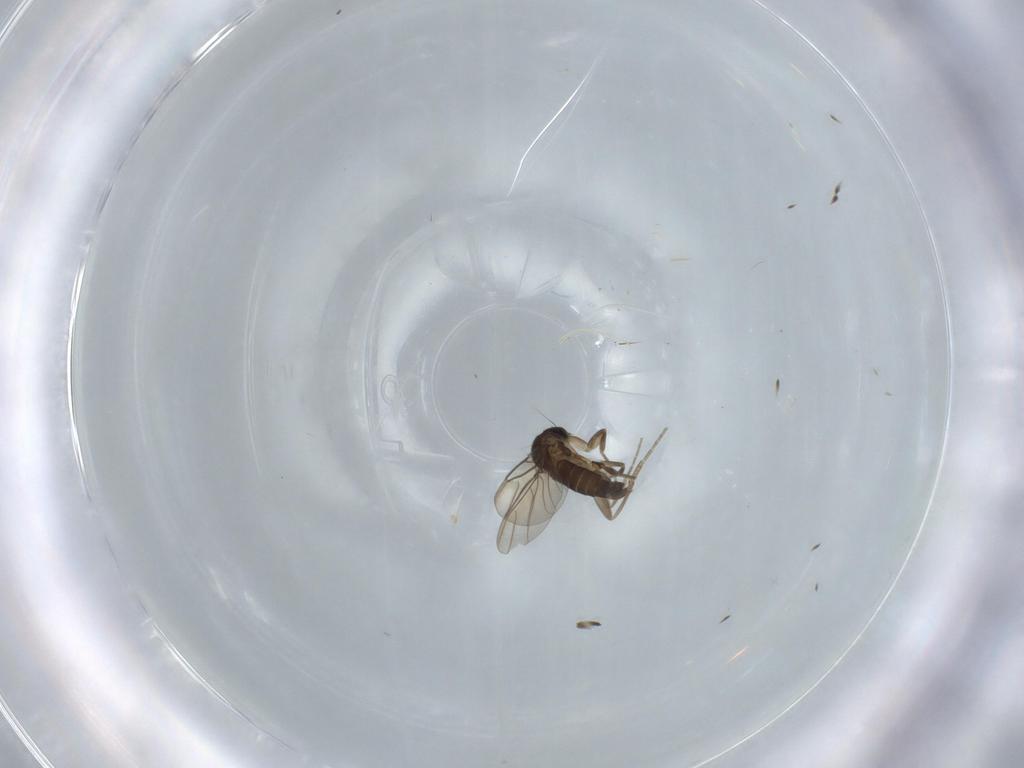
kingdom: Animalia
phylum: Arthropoda
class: Insecta
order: Diptera
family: Phoridae
